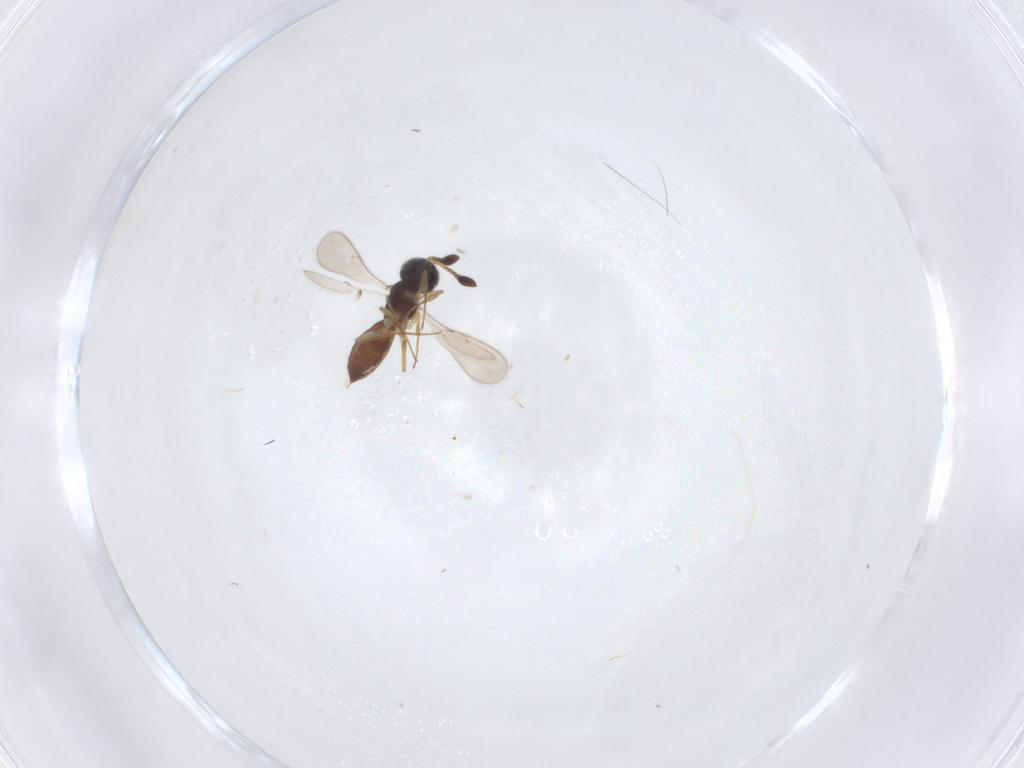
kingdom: Animalia
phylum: Arthropoda
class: Insecta
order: Hymenoptera
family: Scelionidae
